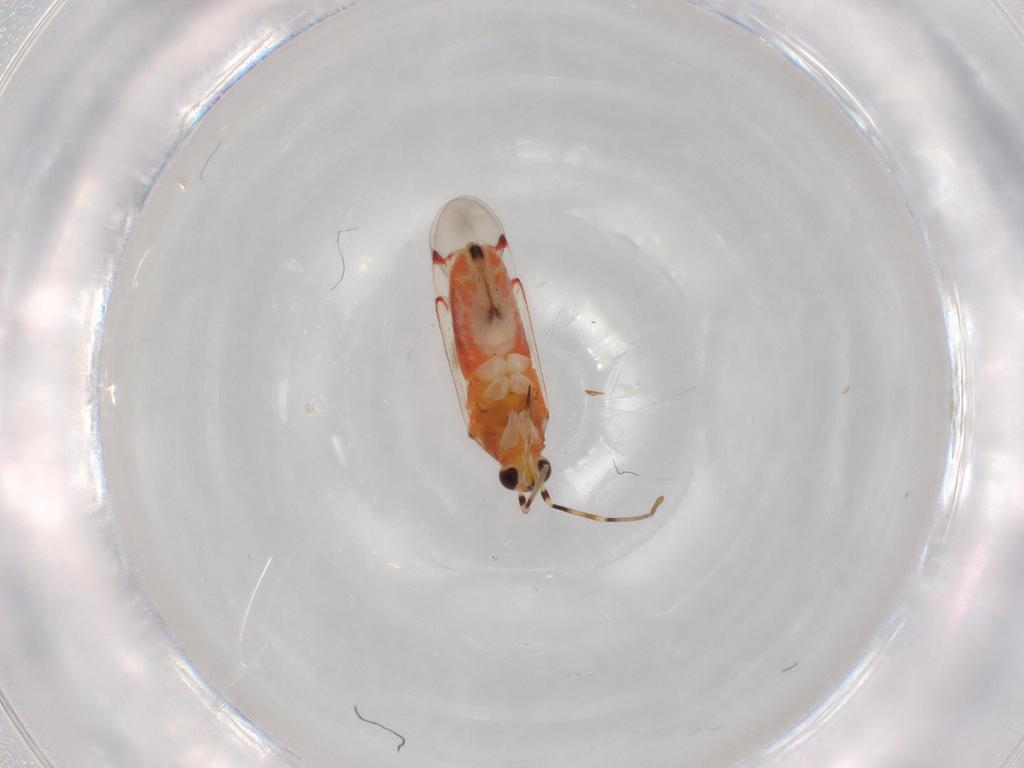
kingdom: Animalia
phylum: Arthropoda
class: Insecta
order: Hemiptera
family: Miridae
